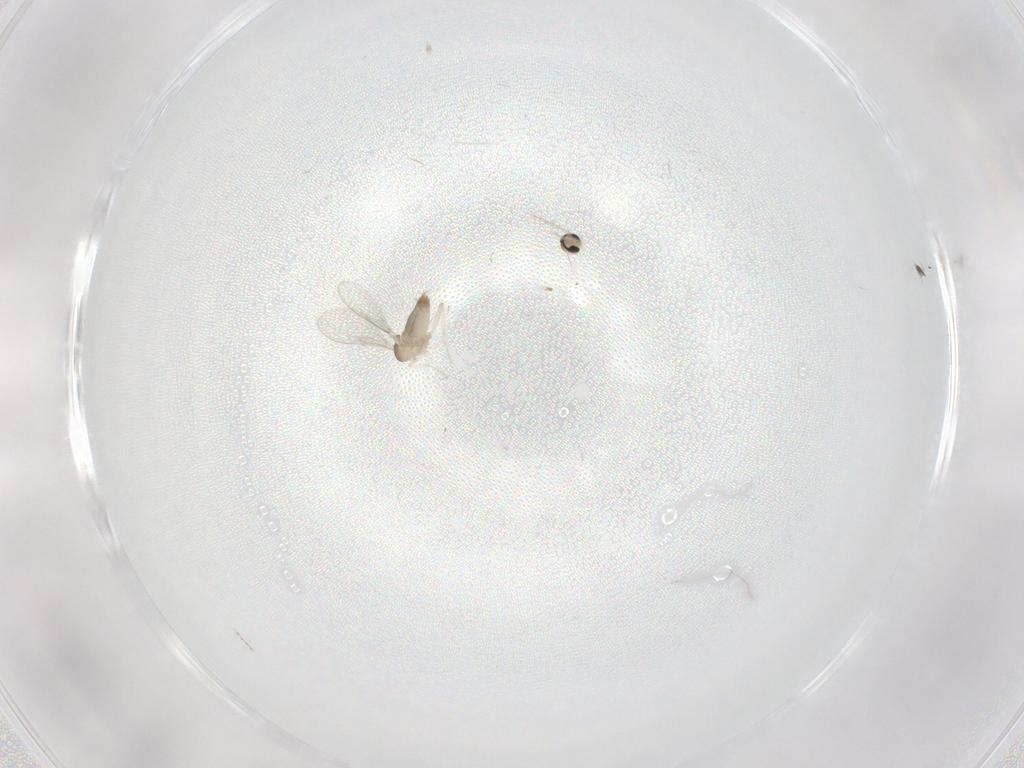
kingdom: Animalia
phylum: Arthropoda
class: Insecta
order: Diptera
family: Cecidomyiidae
